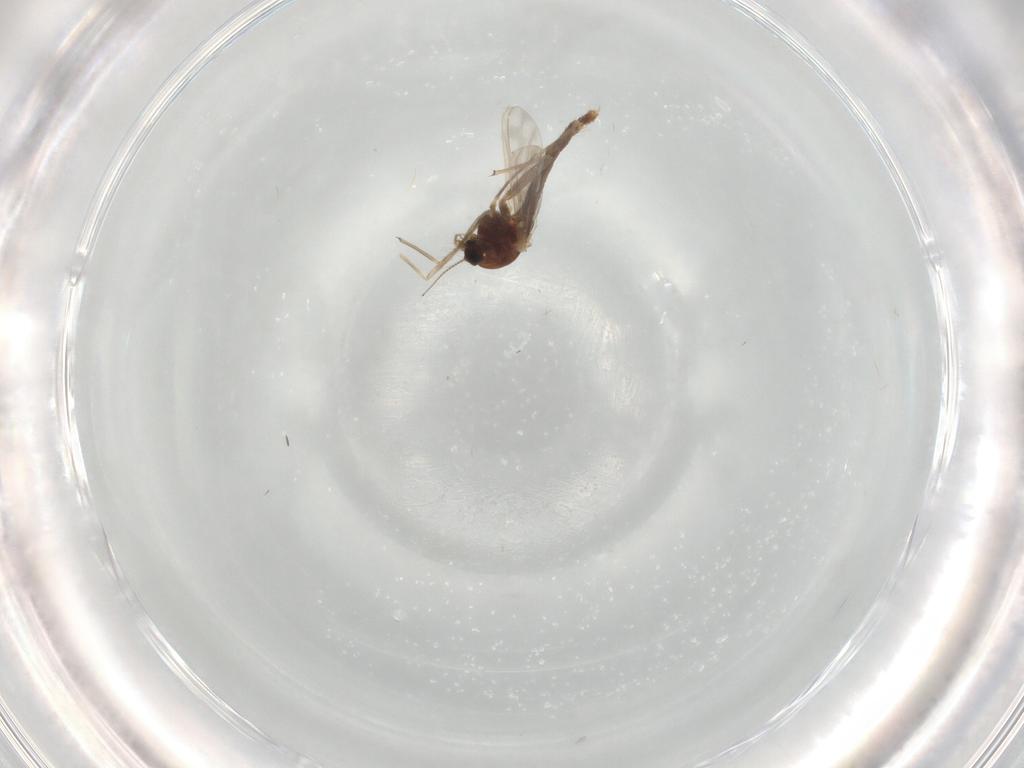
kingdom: Animalia
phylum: Arthropoda
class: Insecta
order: Diptera
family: Chironomidae
